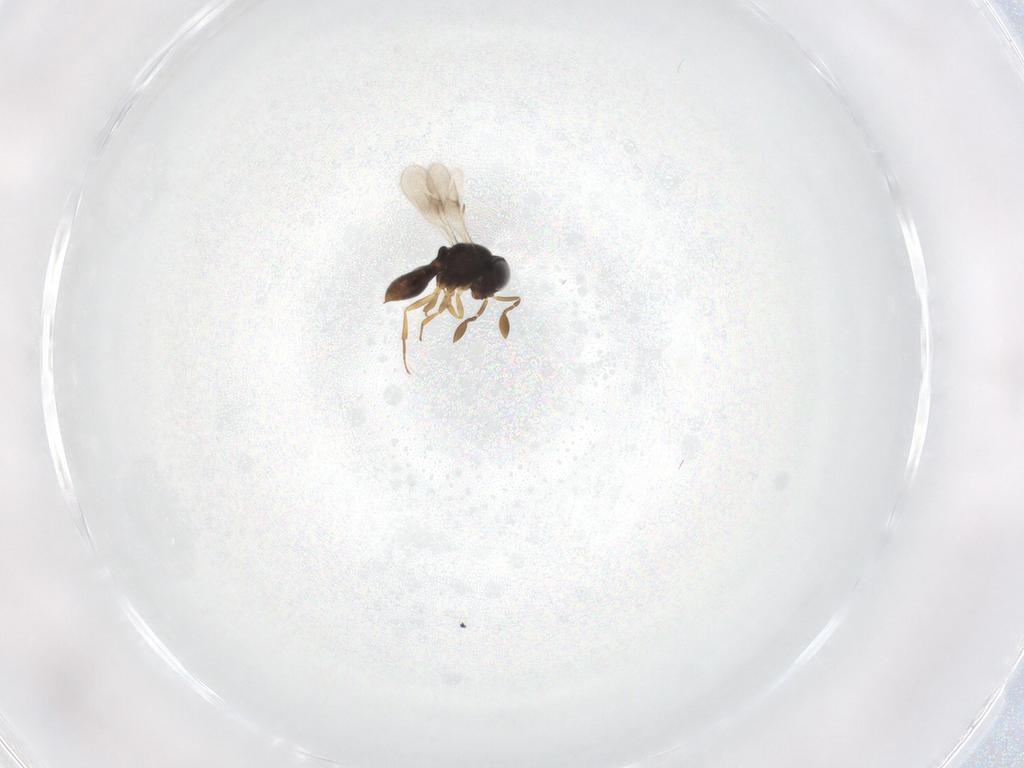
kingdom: Animalia
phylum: Arthropoda
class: Insecta
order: Hymenoptera
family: Scelionidae
